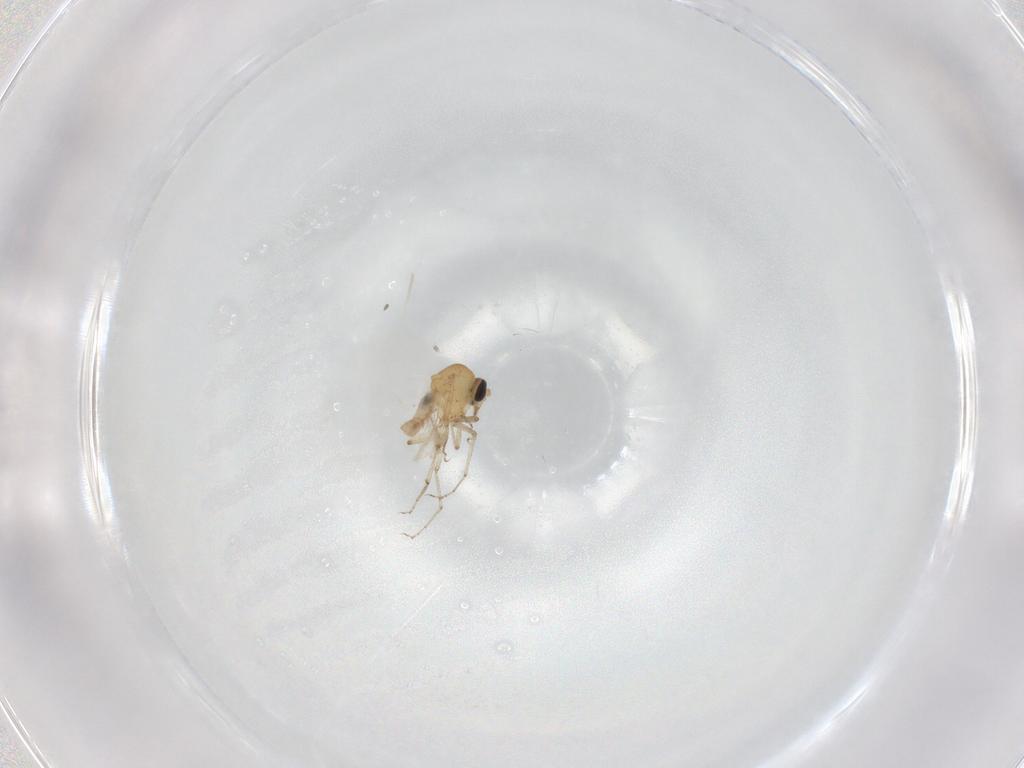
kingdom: Animalia
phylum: Arthropoda
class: Insecta
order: Diptera
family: Ceratopogonidae
